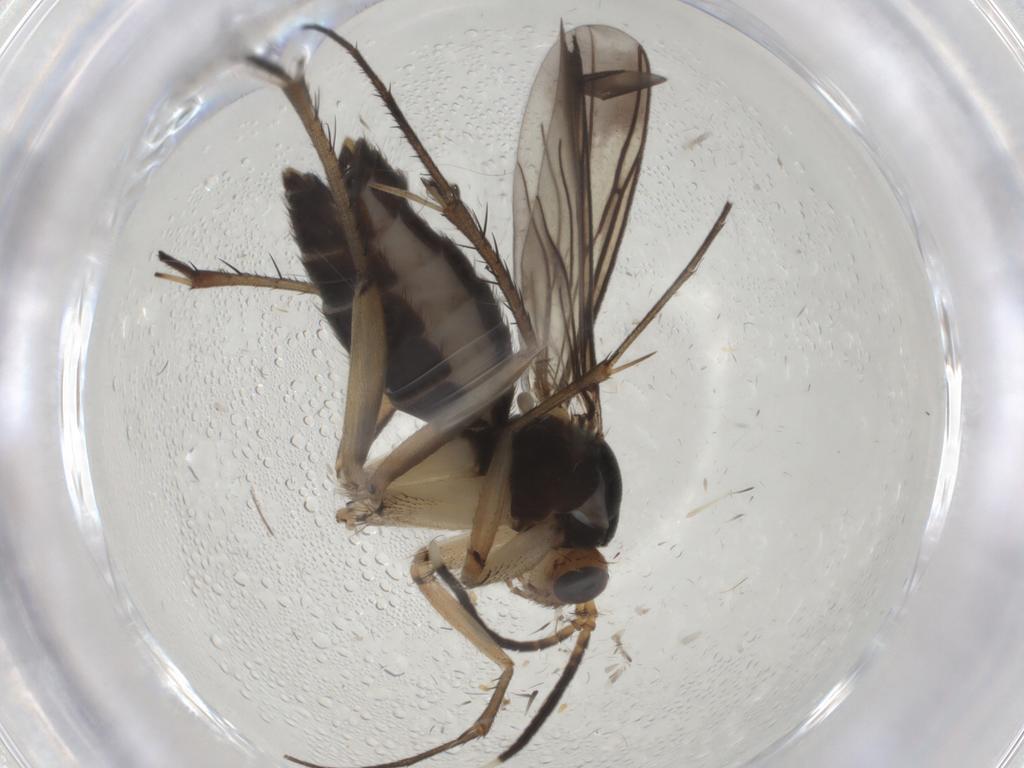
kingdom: Animalia
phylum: Arthropoda
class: Insecta
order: Diptera
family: Mycetophilidae
